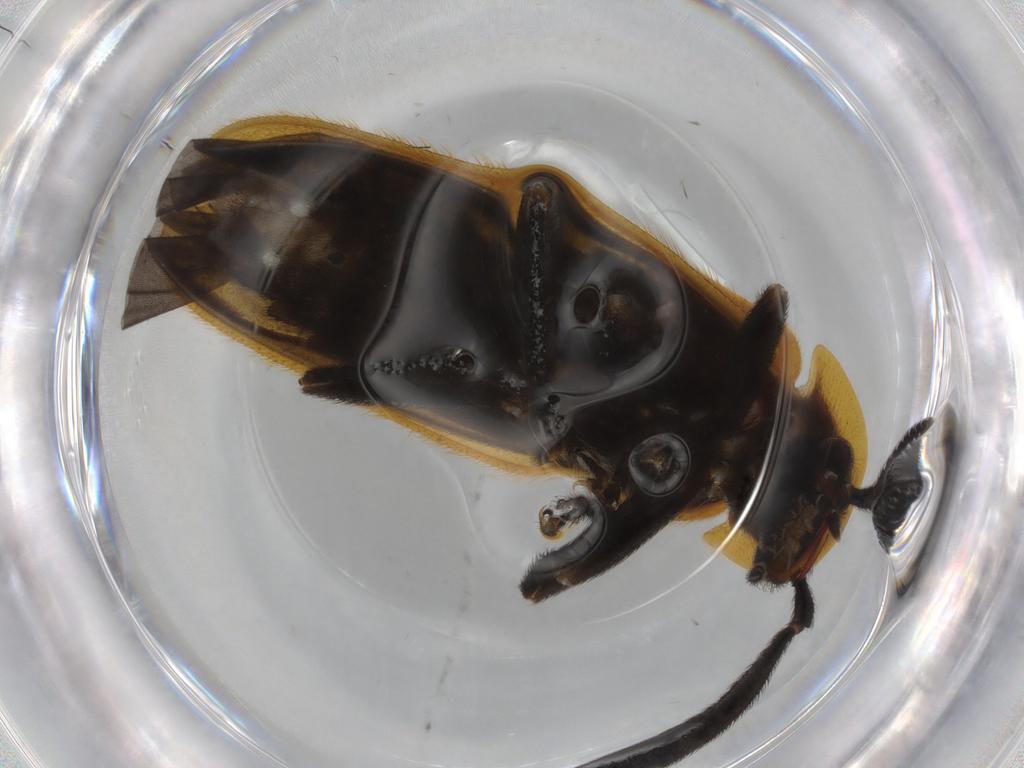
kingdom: Animalia
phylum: Arthropoda
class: Insecta
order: Coleoptera
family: Lampyridae
